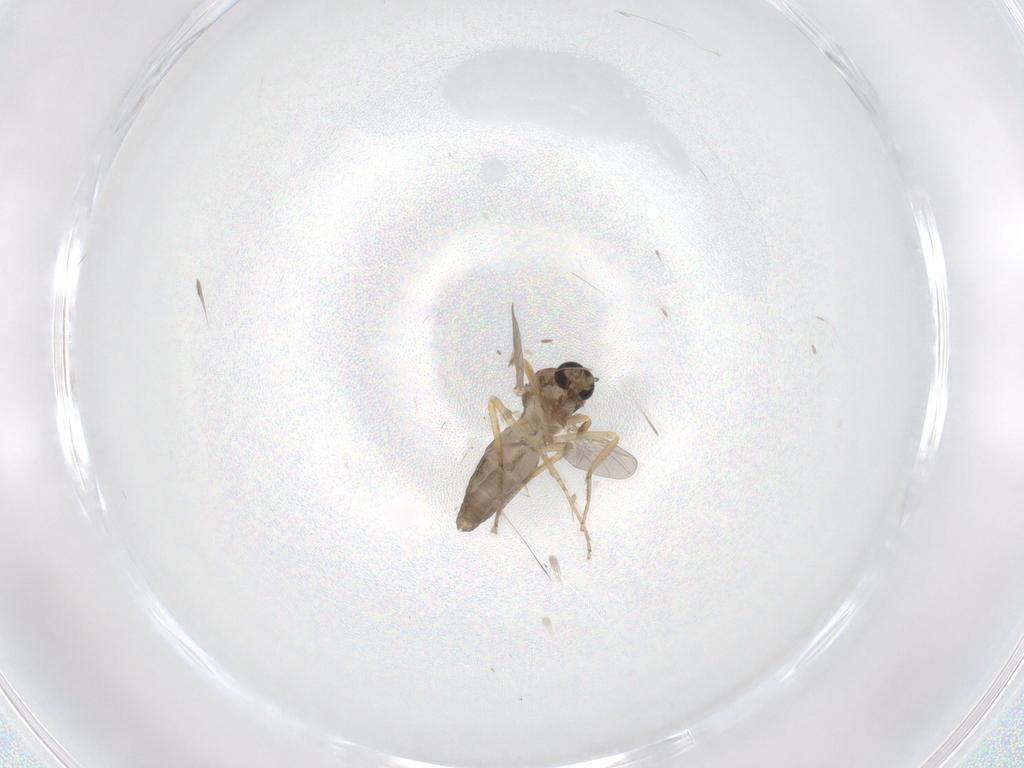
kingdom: Animalia
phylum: Arthropoda
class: Insecta
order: Diptera
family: Ceratopogonidae
